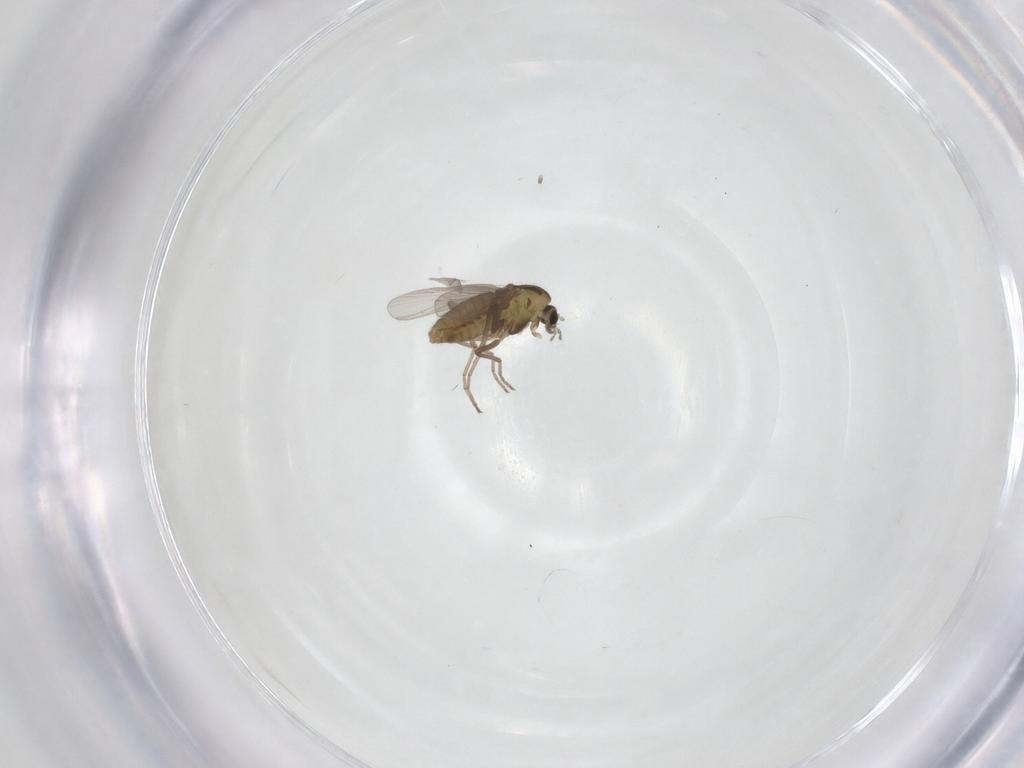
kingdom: Animalia
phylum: Arthropoda
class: Insecta
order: Diptera
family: Chironomidae
